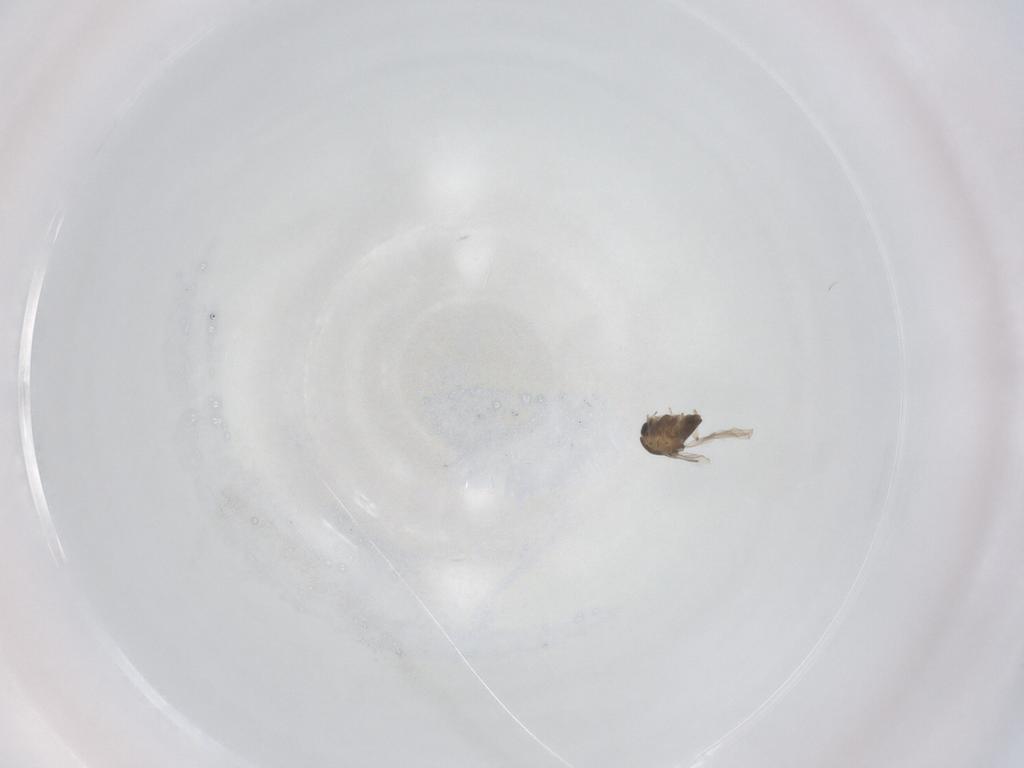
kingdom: Animalia
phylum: Arthropoda
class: Insecta
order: Diptera
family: Chironomidae
